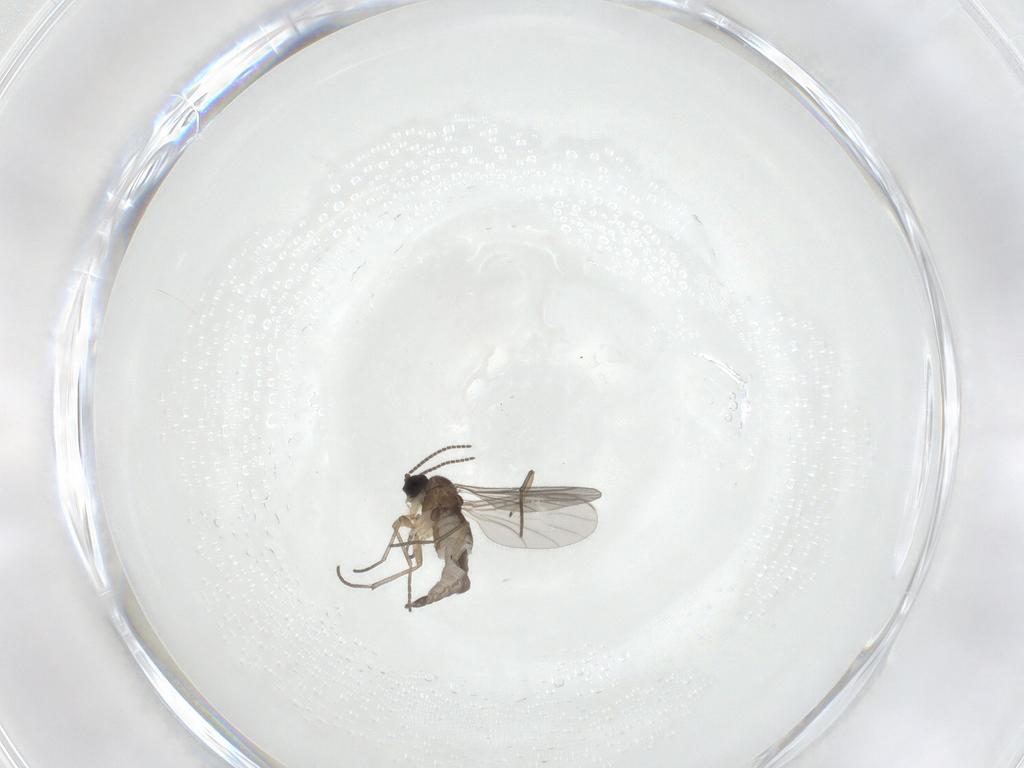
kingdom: Animalia
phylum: Arthropoda
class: Insecta
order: Diptera
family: Sciaridae
